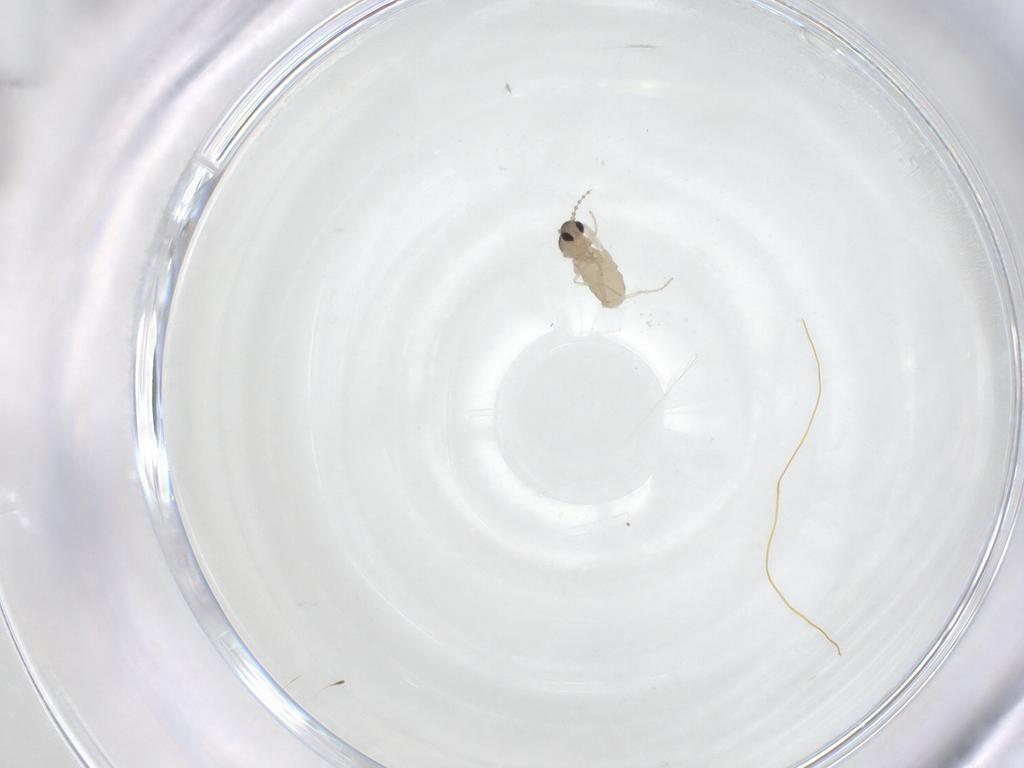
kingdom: Animalia
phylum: Arthropoda
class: Insecta
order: Diptera
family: Cecidomyiidae
